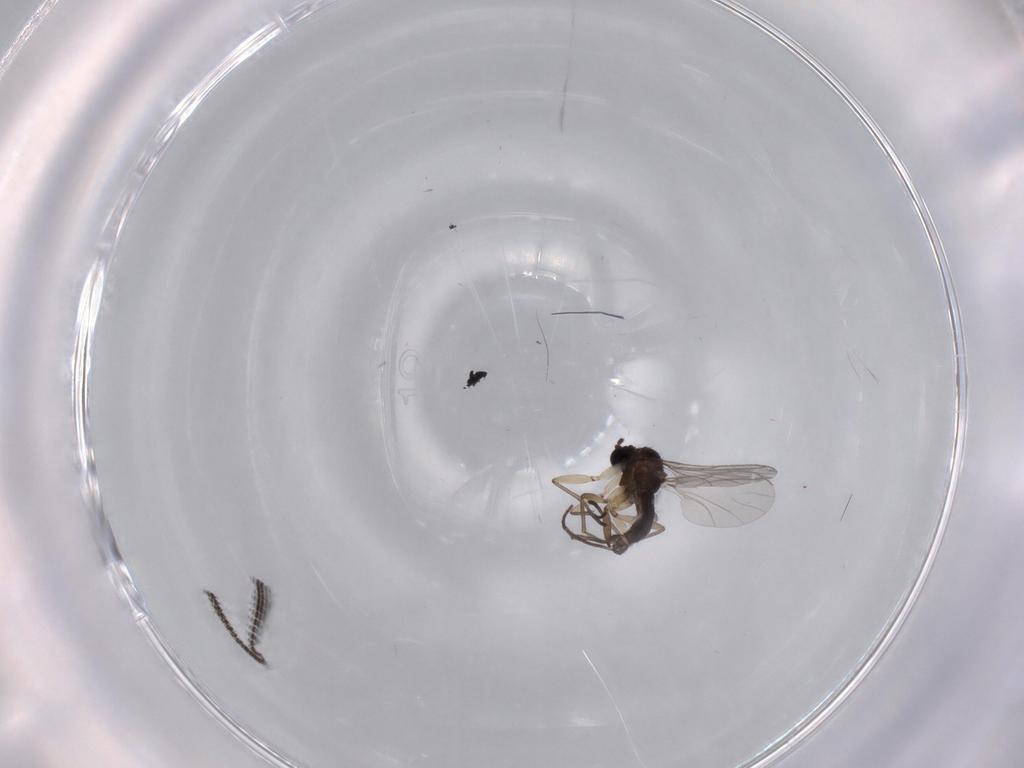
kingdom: Animalia
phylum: Arthropoda
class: Insecta
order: Diptera
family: Sciaridae
